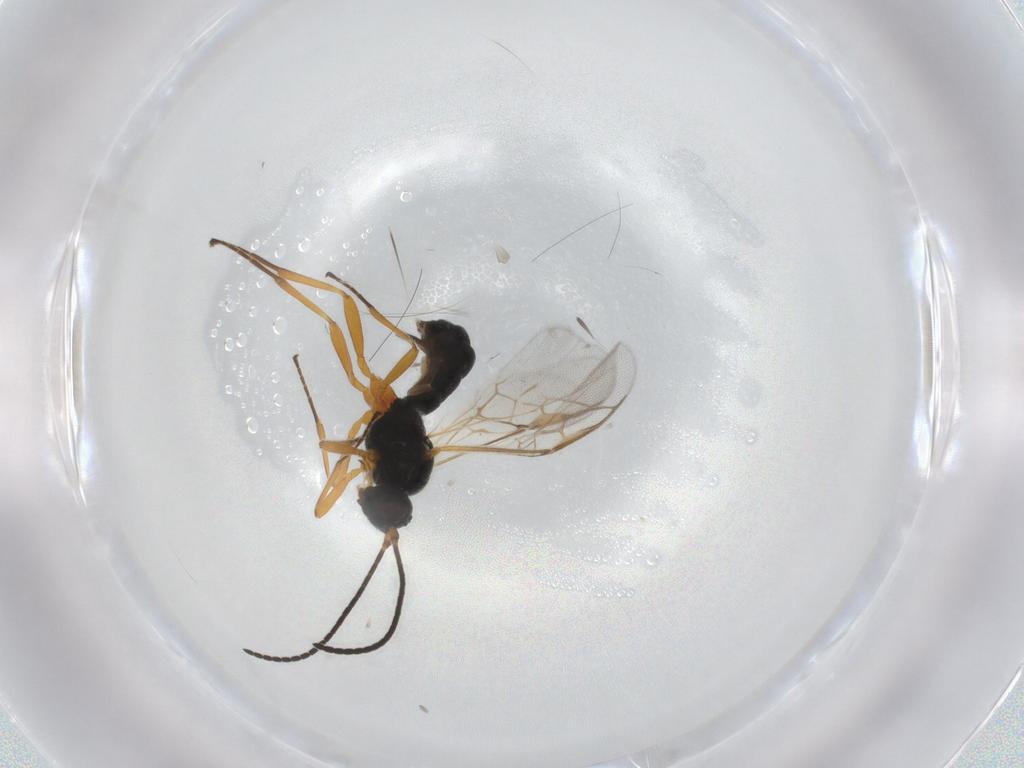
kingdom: Animalia
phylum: Arthropoda
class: Insecta
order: Hymenoptera
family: Braconidae
